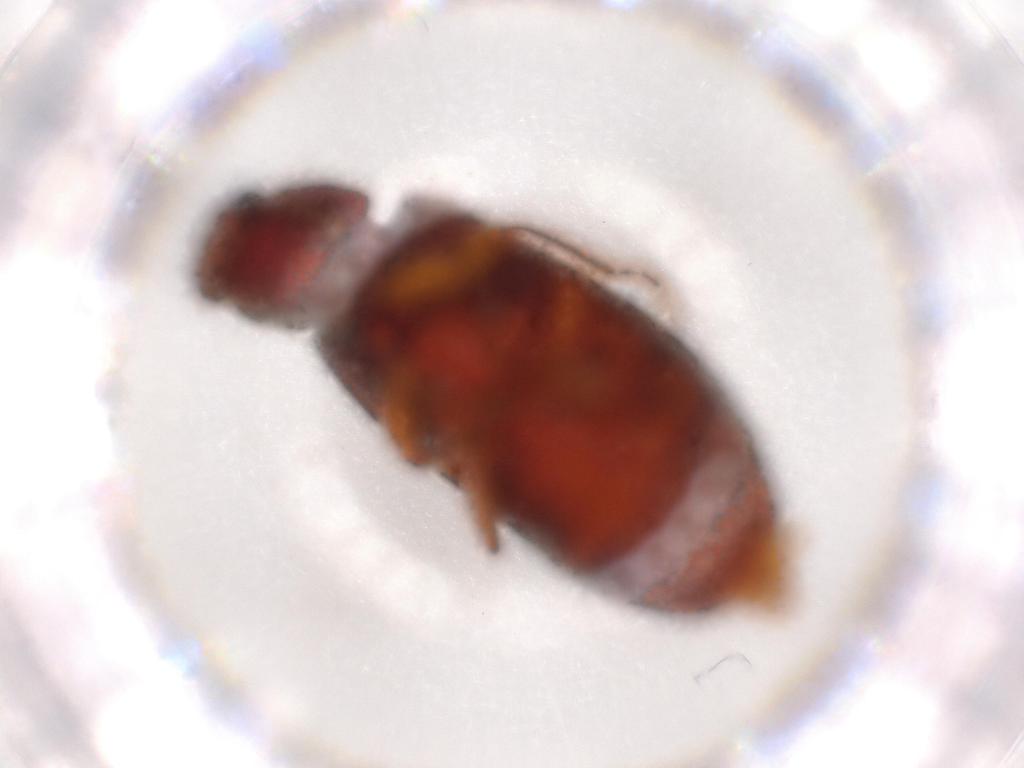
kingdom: Animalia
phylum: Arthropoda
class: Insecta
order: Coleoptera
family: Mycteridae
